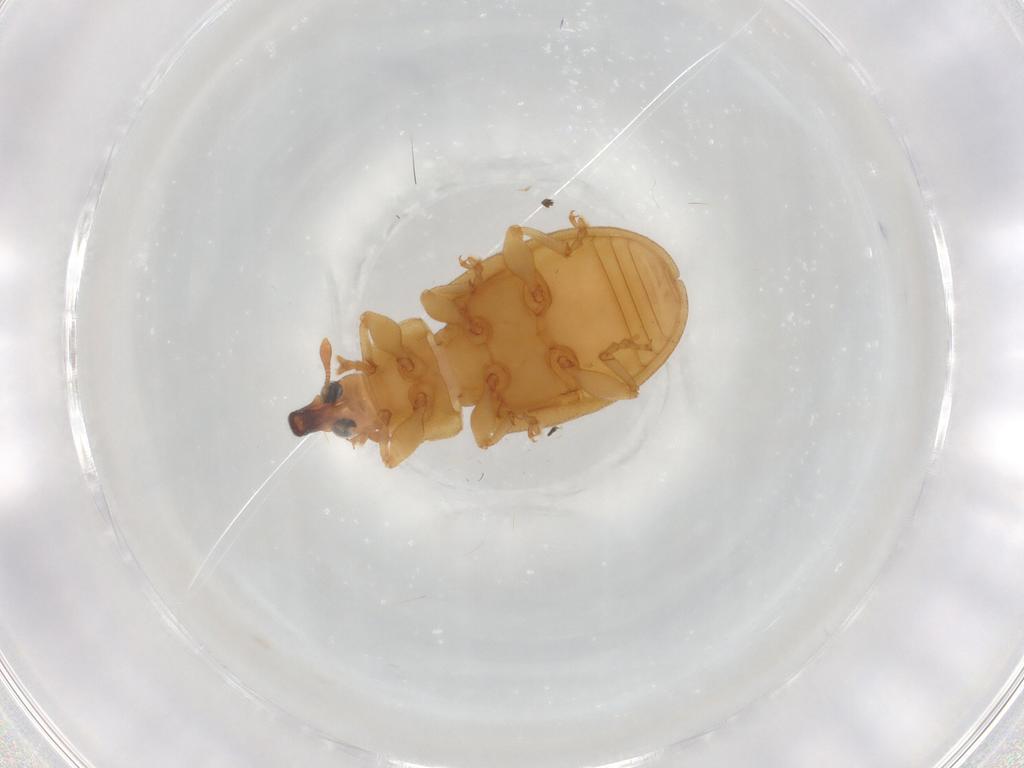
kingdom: Animalia
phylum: Arthropoda
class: Insecta
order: Coleoptera
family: Curculionidae
